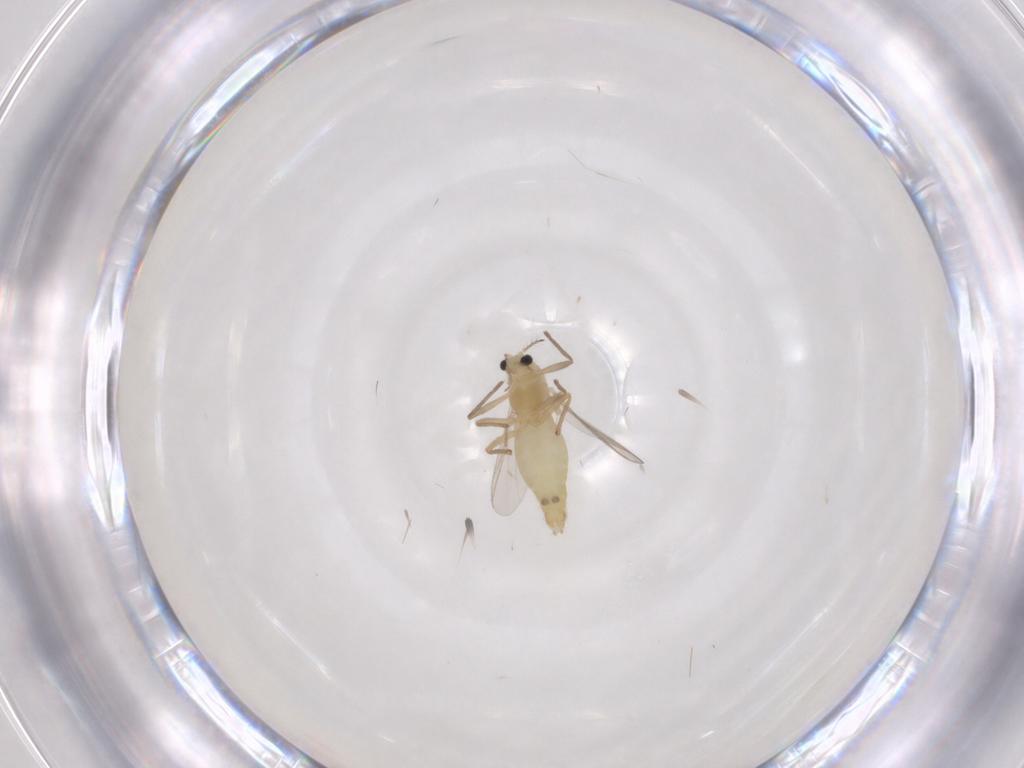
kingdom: Animalia
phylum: Arthropoda
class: Insecta
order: Diptera
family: Chironomidae
